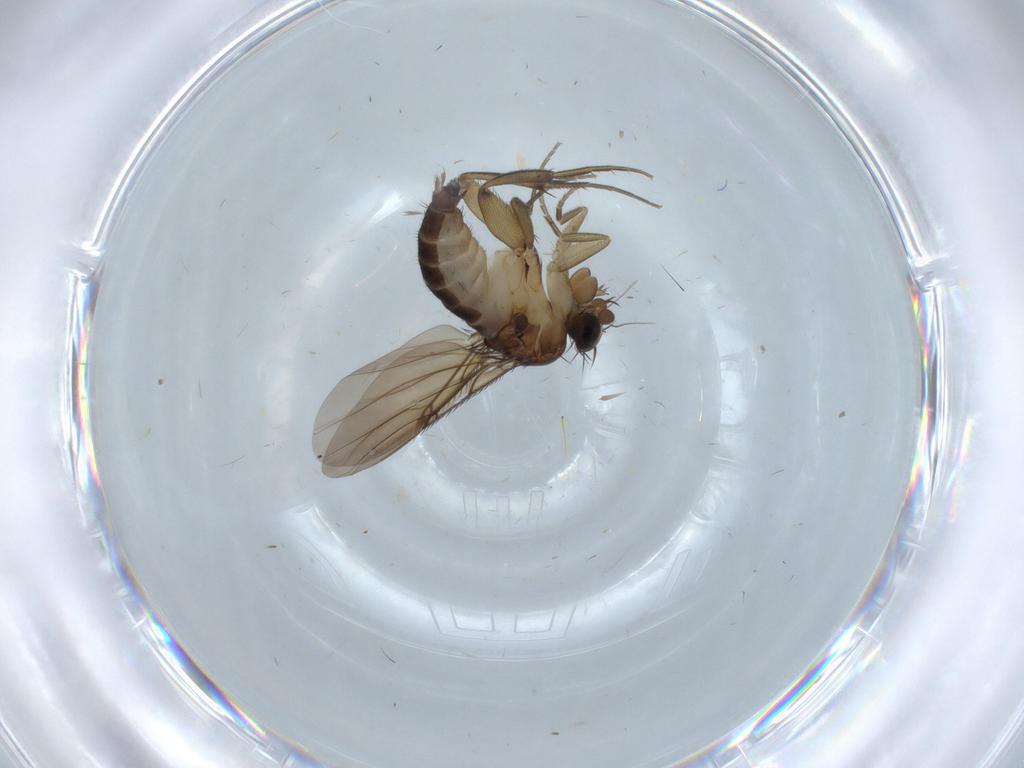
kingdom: Animalia
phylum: Arthropoda
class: Insecta
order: Diptera
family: Phoridae
